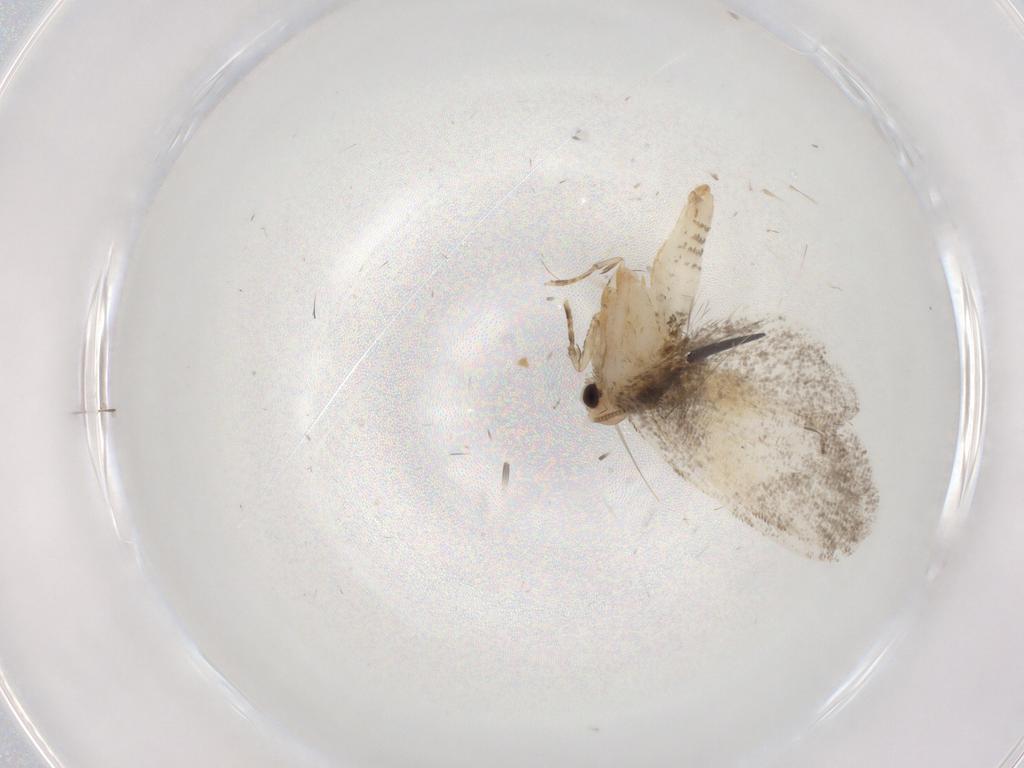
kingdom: Animalia
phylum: Arthropoda
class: Insecta
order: Lepidoptera
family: Psychidae
